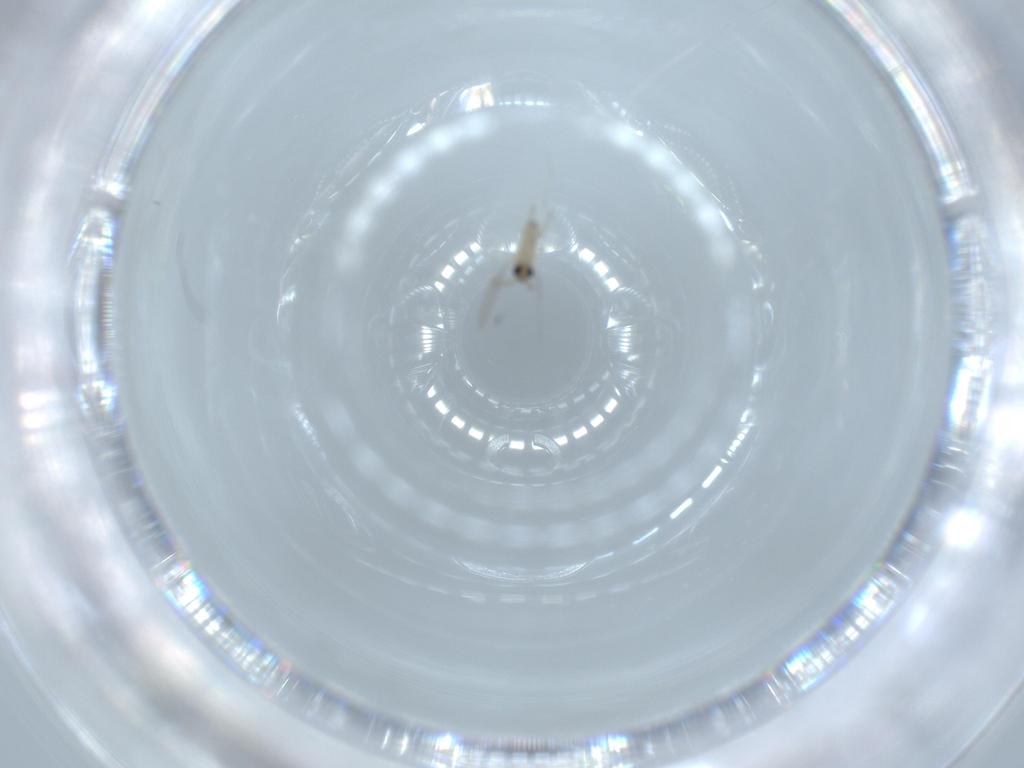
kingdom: Animalia
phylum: Arthropoda
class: Insecta
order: Diptera
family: Cecidomyiidae
